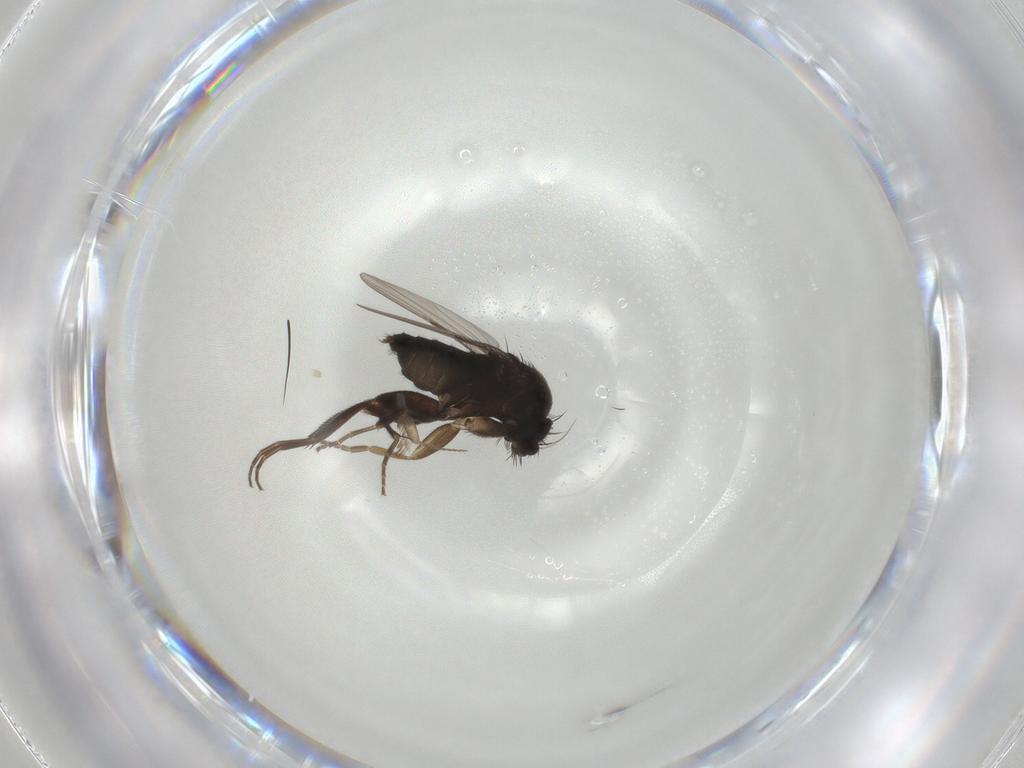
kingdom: Animalia
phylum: Arthropoda
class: Insecta
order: Diptera
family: Phoridae
